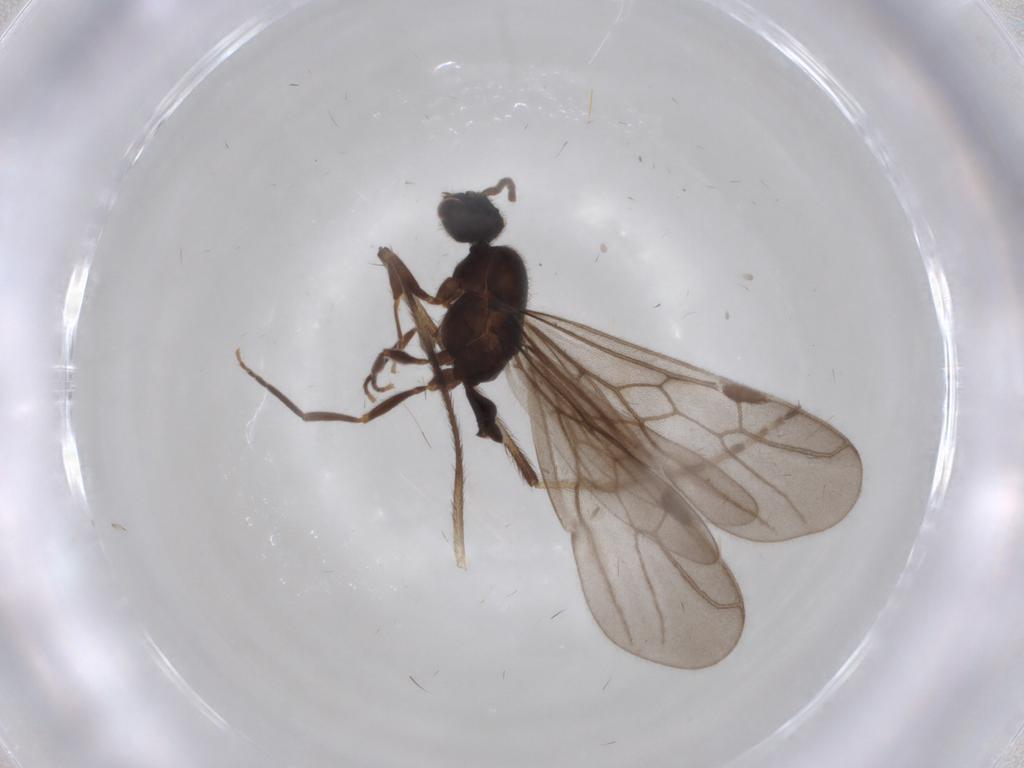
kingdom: Animalia
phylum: Arthropoda
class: Insecta
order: Hymenoptera
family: Formicidae
